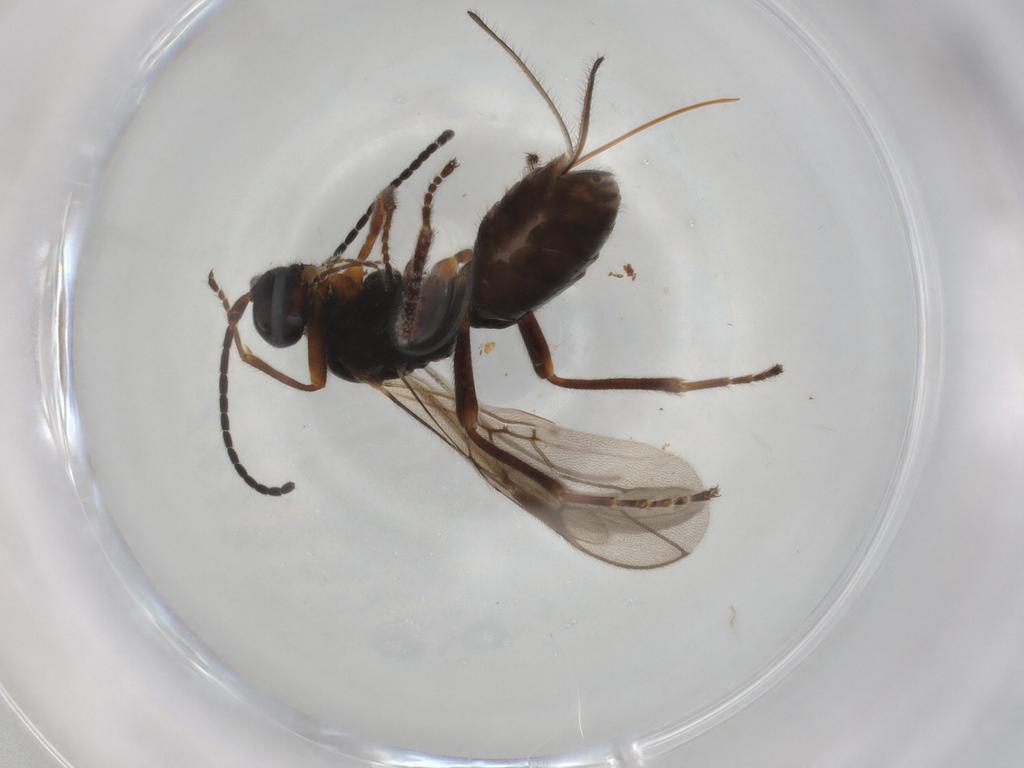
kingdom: Animalia
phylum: Arthropoda
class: Insecta
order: Hymenoptera
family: Braconidae
